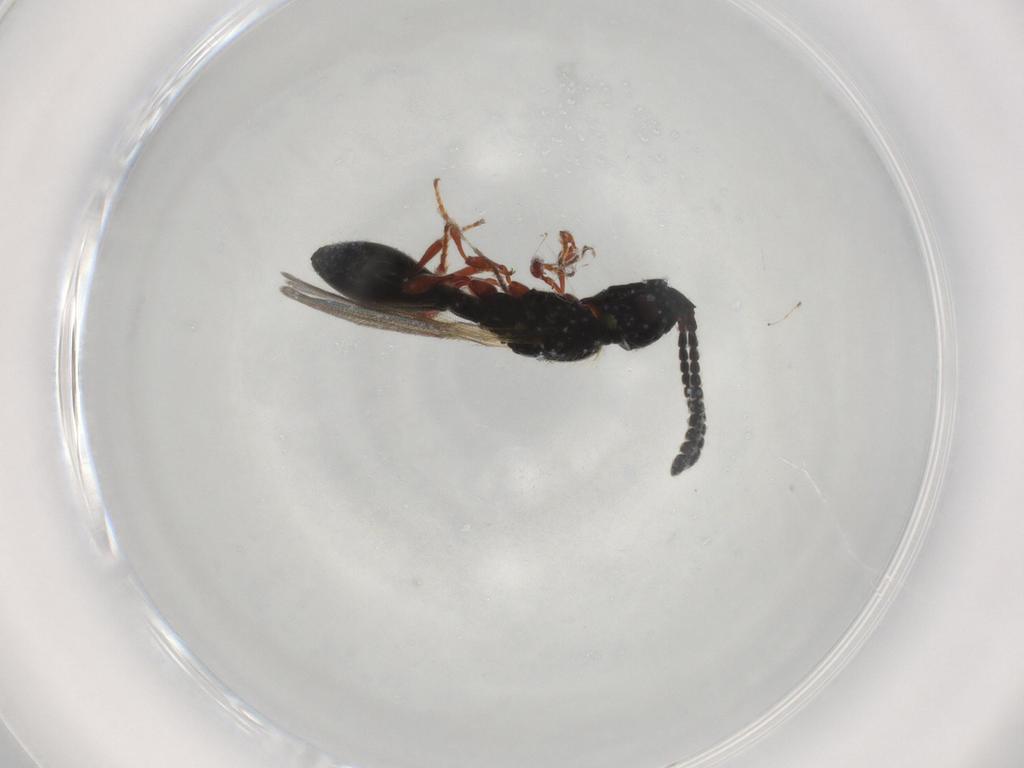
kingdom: Animalia
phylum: Arthropoda
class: Insecta
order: Hymenoptera
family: Diapriidae
